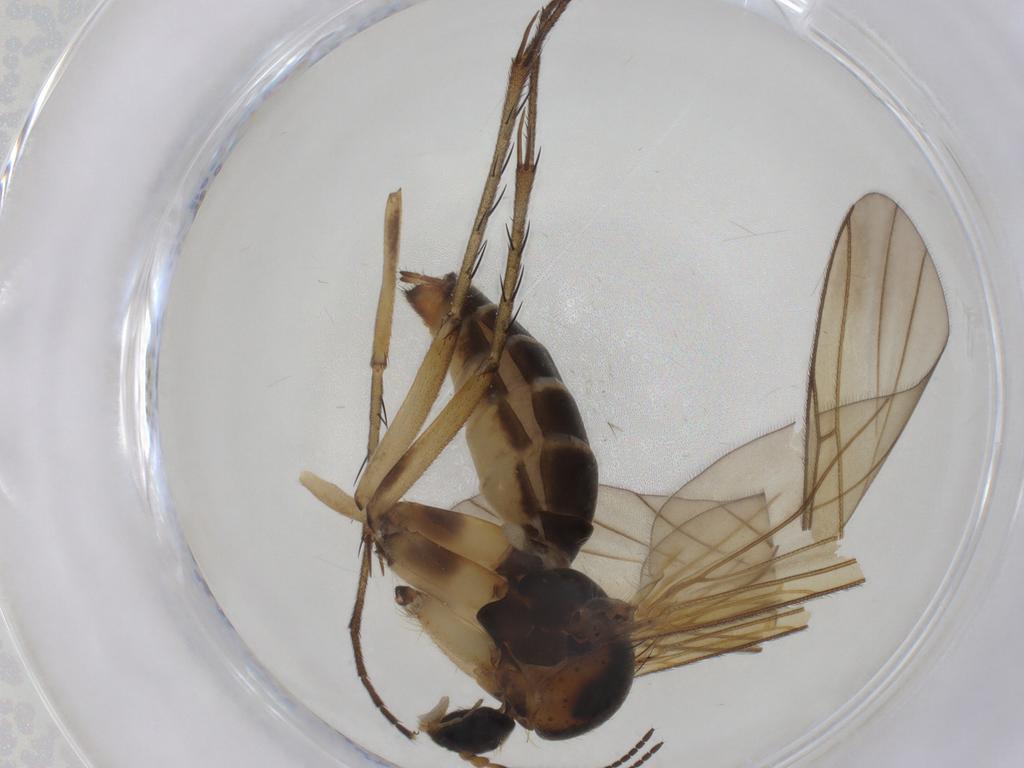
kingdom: Animalia
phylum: Arthropoda
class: Insecta
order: Diptera
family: Mycetophilidae
